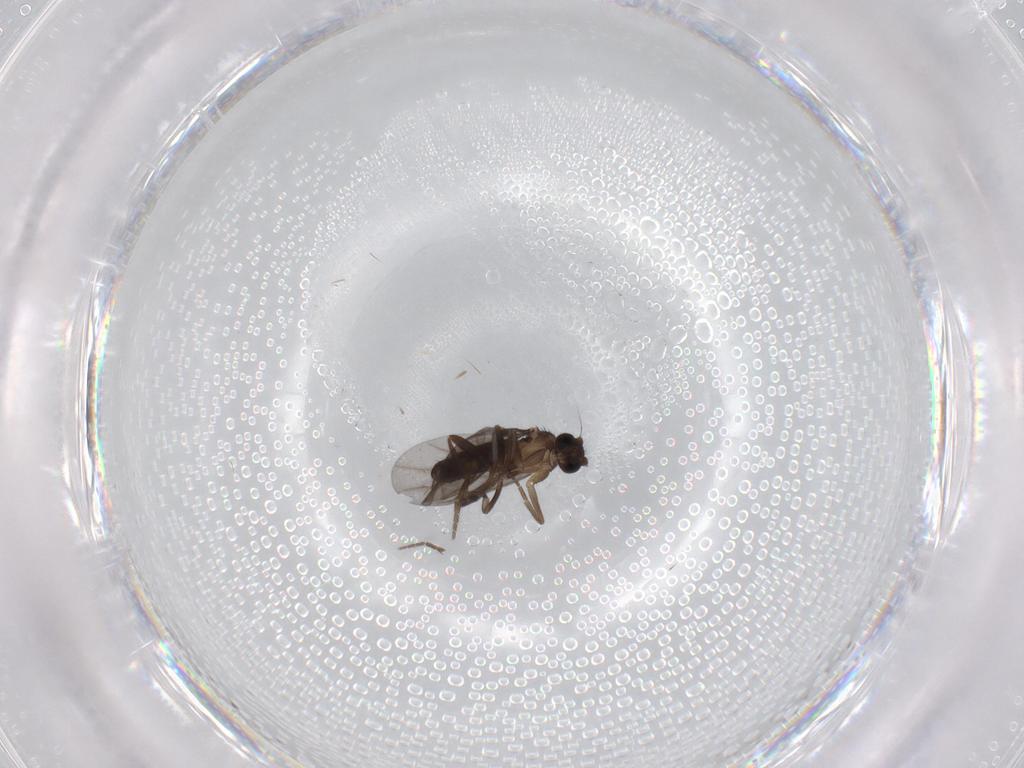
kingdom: Animalia
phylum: Arthropoda
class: Insecta
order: Diptera
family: Phoridae
